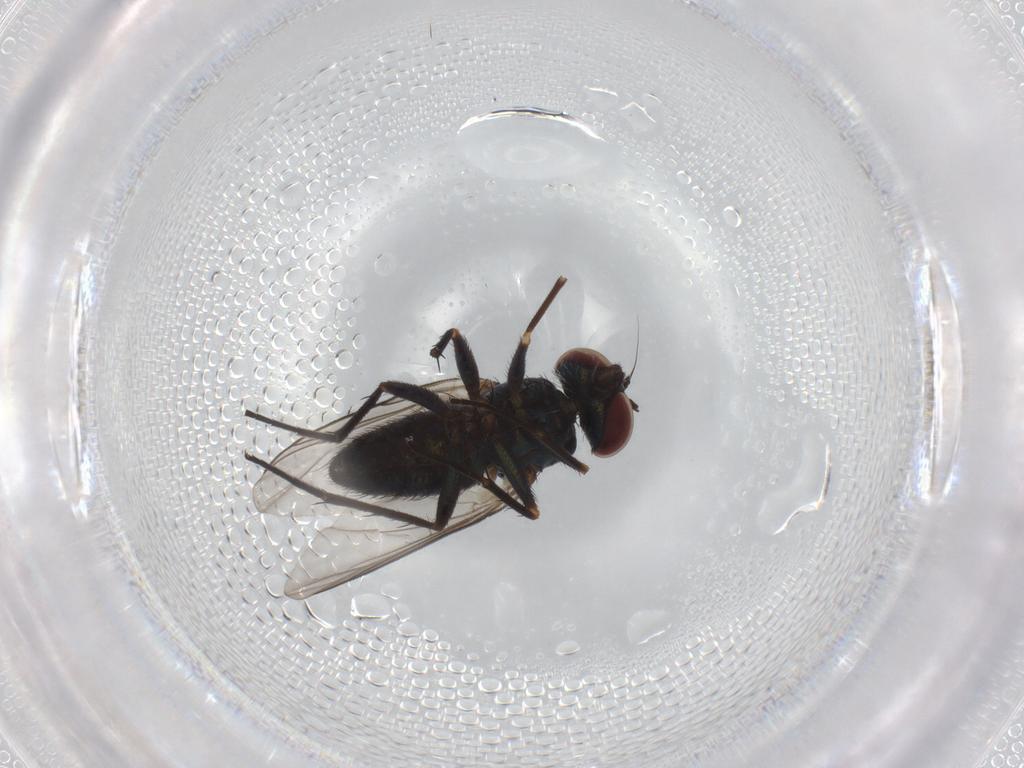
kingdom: Animalia
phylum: Arthropoda
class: Insecta
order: Diptera
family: Dolichopodidae
